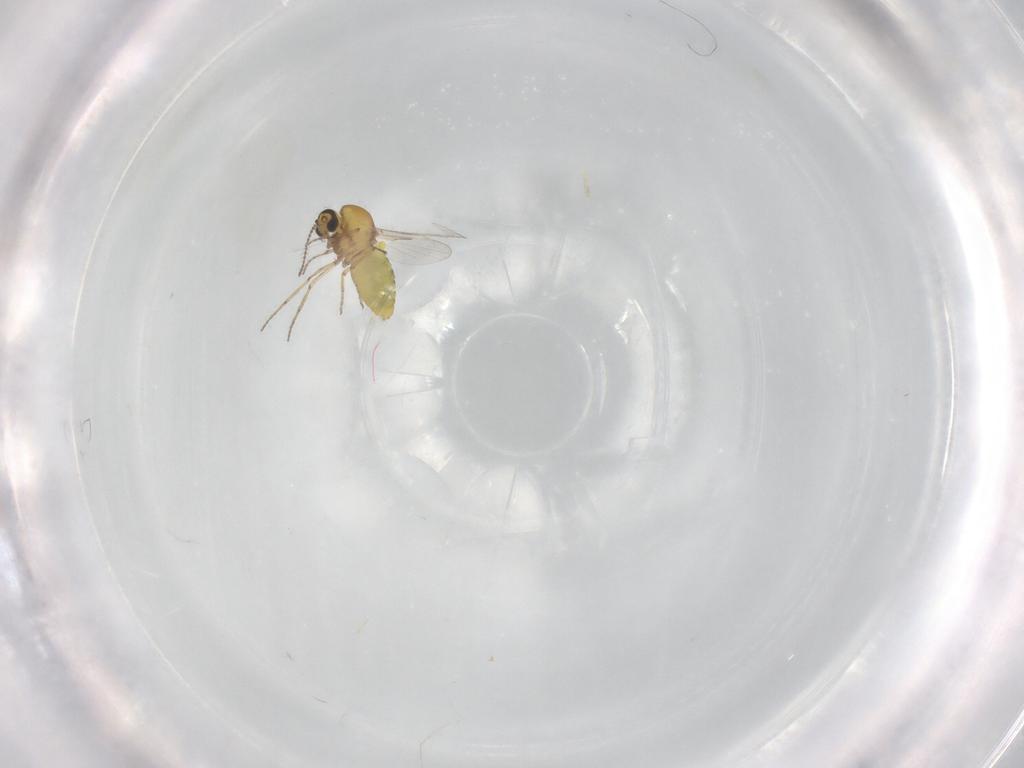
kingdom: Animalia
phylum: Arthropoda
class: Insecta
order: Diptera
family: Ceratopogonidae
